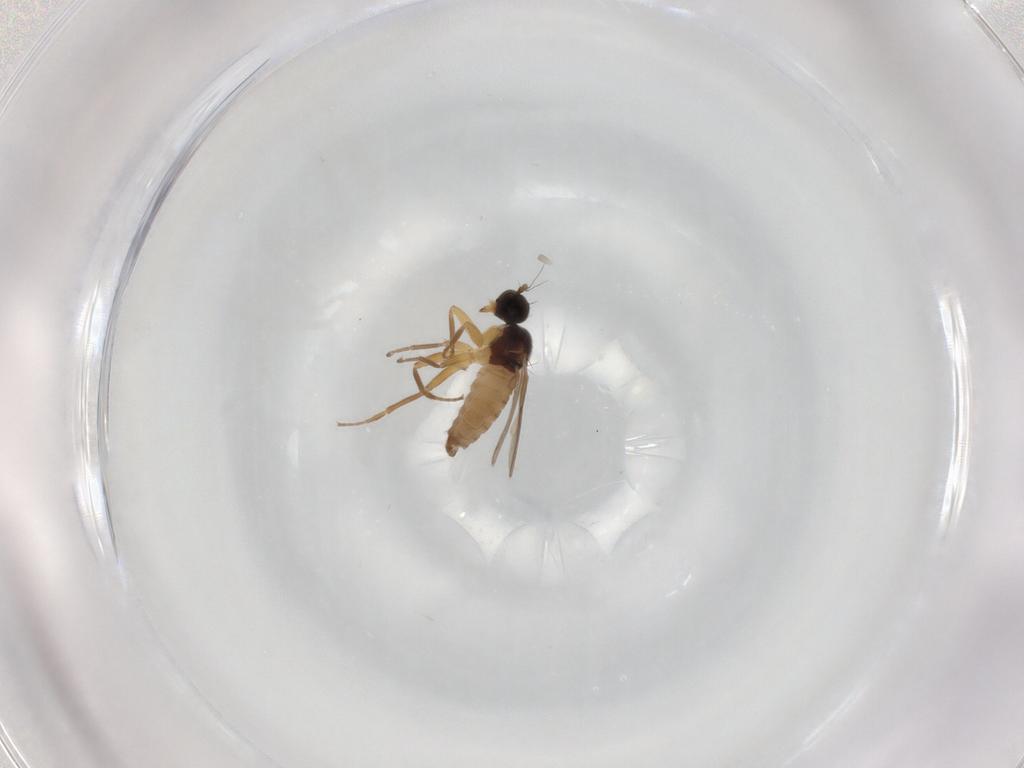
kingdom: Animalia
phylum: Arthropoda
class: Insecta
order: Diptera
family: Hybotidae
